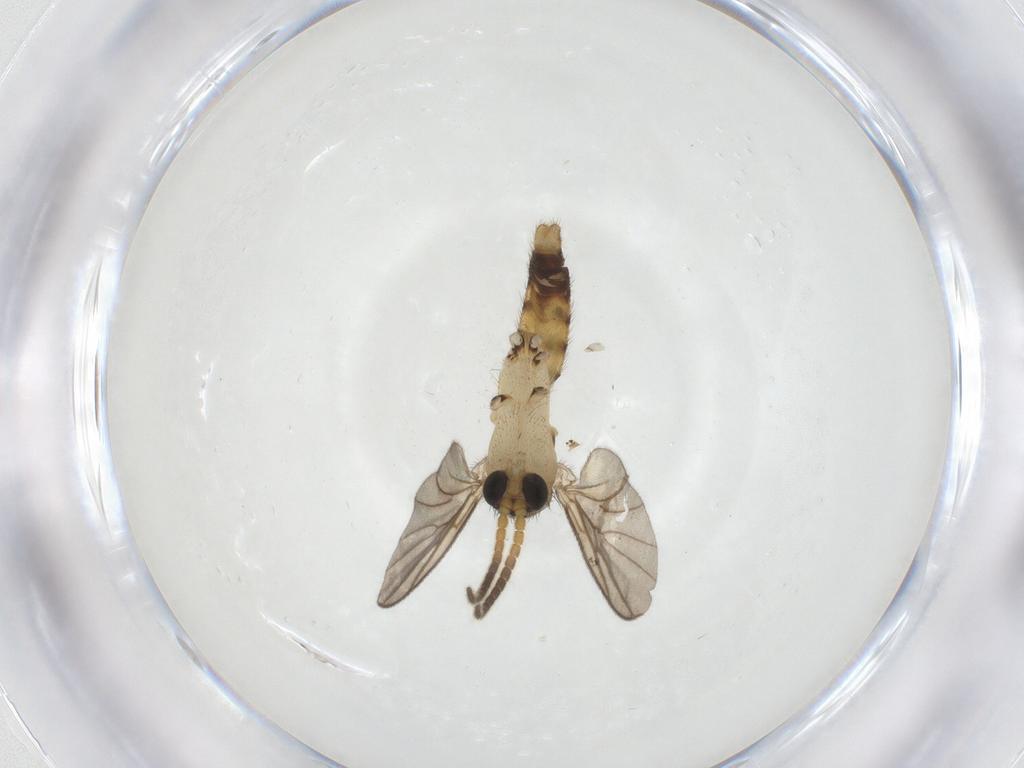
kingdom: Animalia
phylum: Arthropoda
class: Insecta
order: Diptera
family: Mycetophilidae
